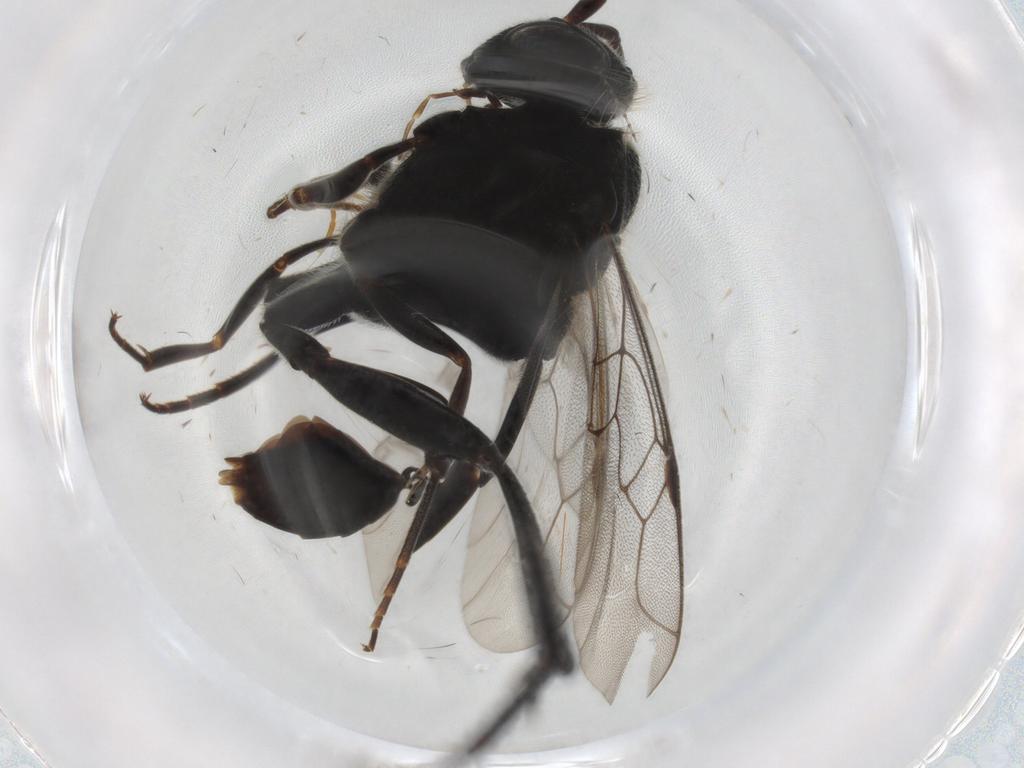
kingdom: Animalia
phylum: Arthropoda
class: Insecta
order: Hymenoptera
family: Evaniidae
